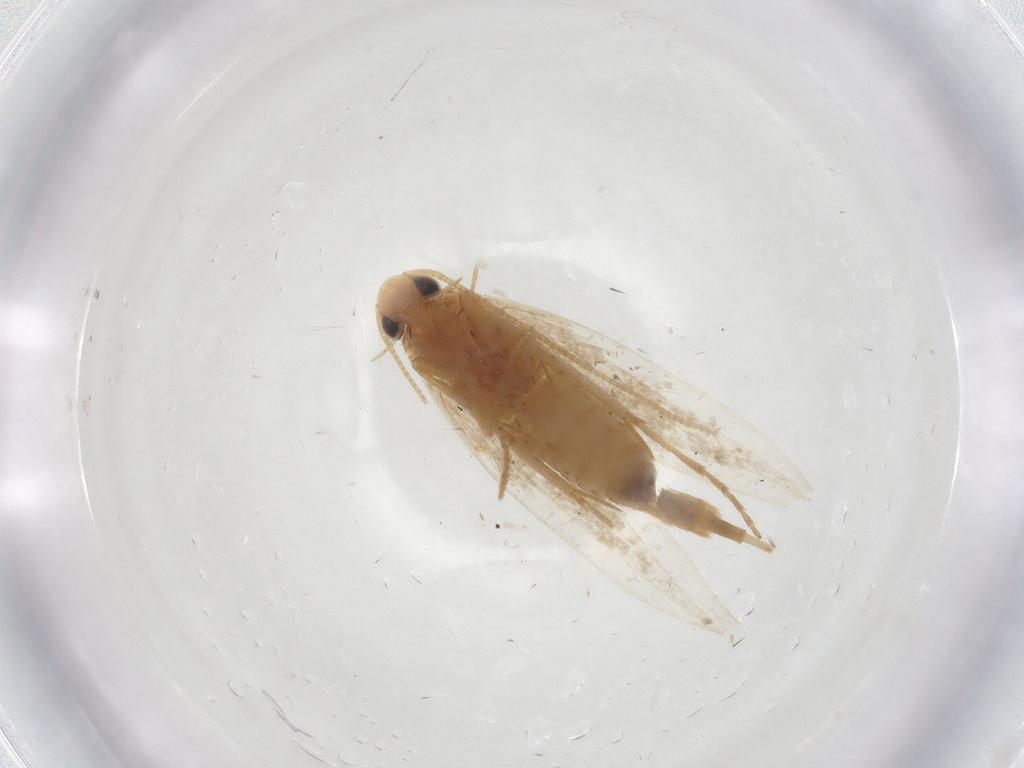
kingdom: Animalia
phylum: Arthropoda
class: Insecta
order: Lepidoptera
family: Tineidae
